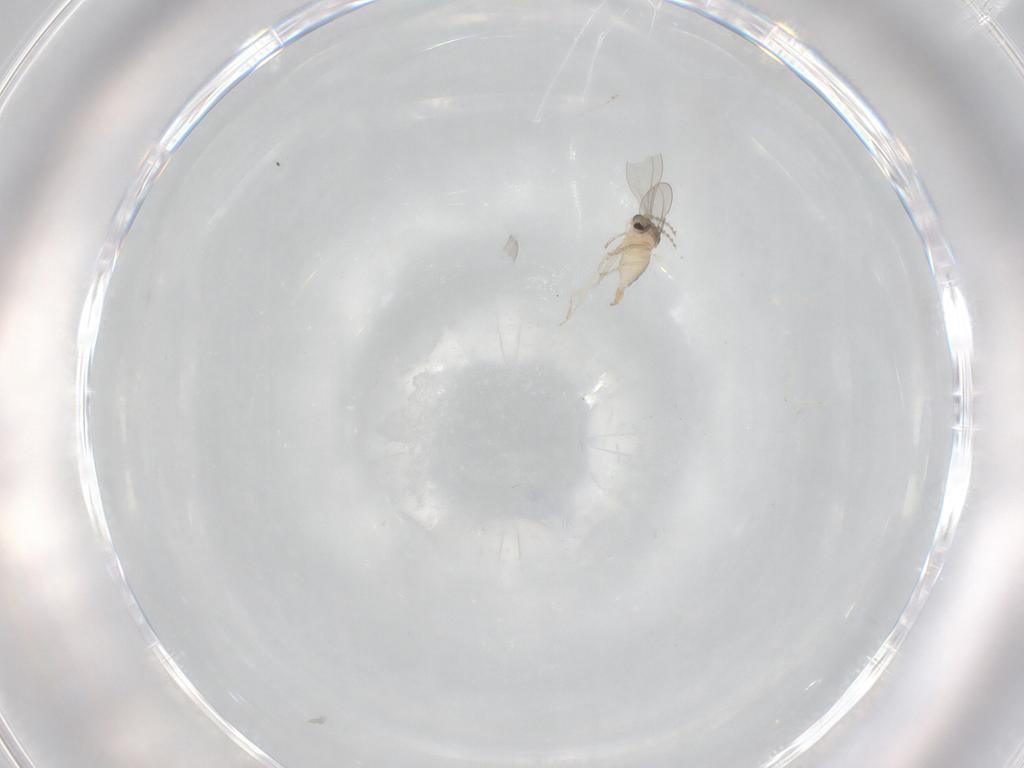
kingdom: Animalia
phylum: Arthropoda
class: Insecta
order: Diptera
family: Cecidomyiidae
